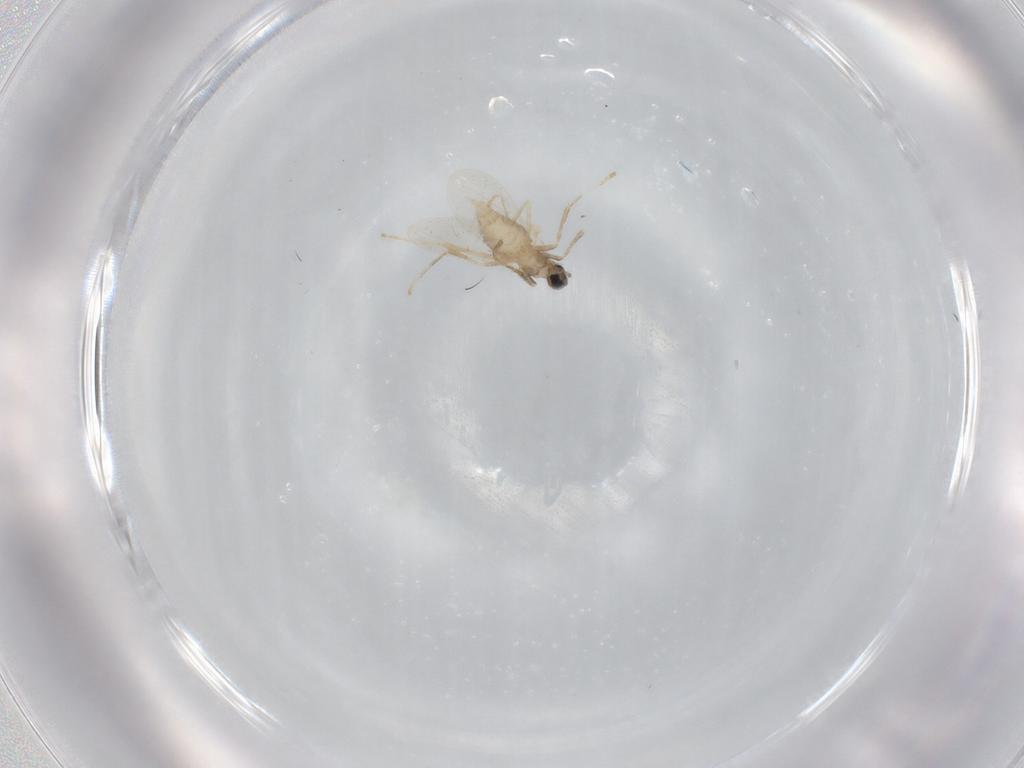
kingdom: Animalia
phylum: Arthropoda
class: Insecta
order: Diptera
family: Cecidomyiidae
